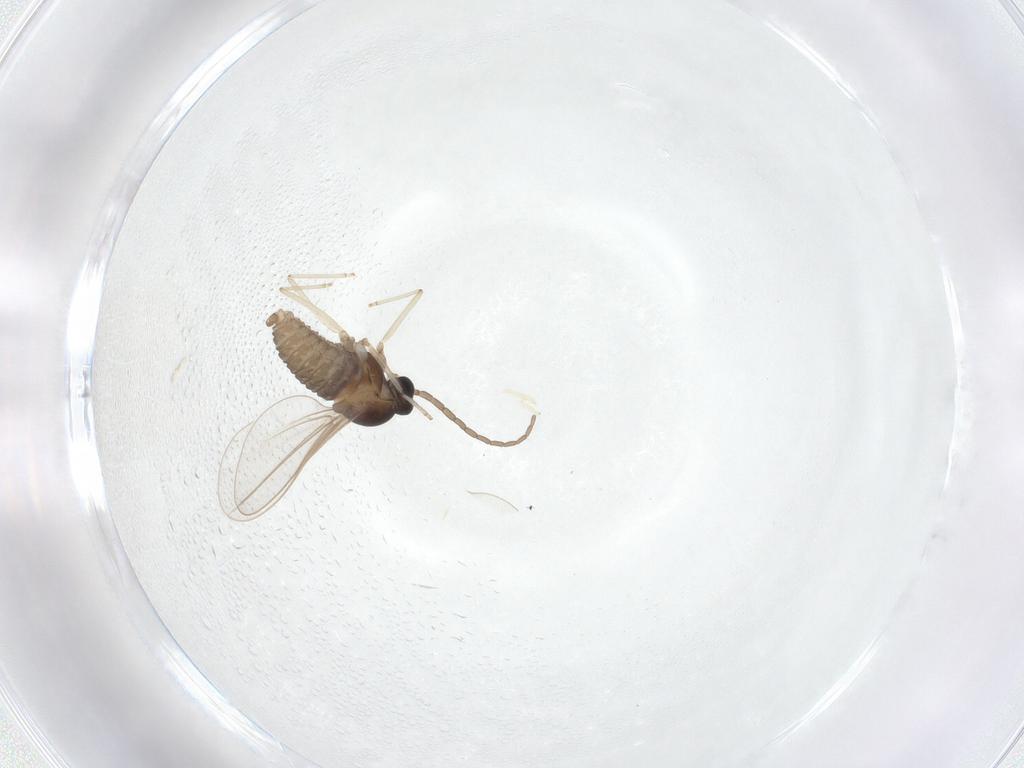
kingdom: Animalia
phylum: Arthropoda
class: Insecta
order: Diptera
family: Cecidomyiidae
